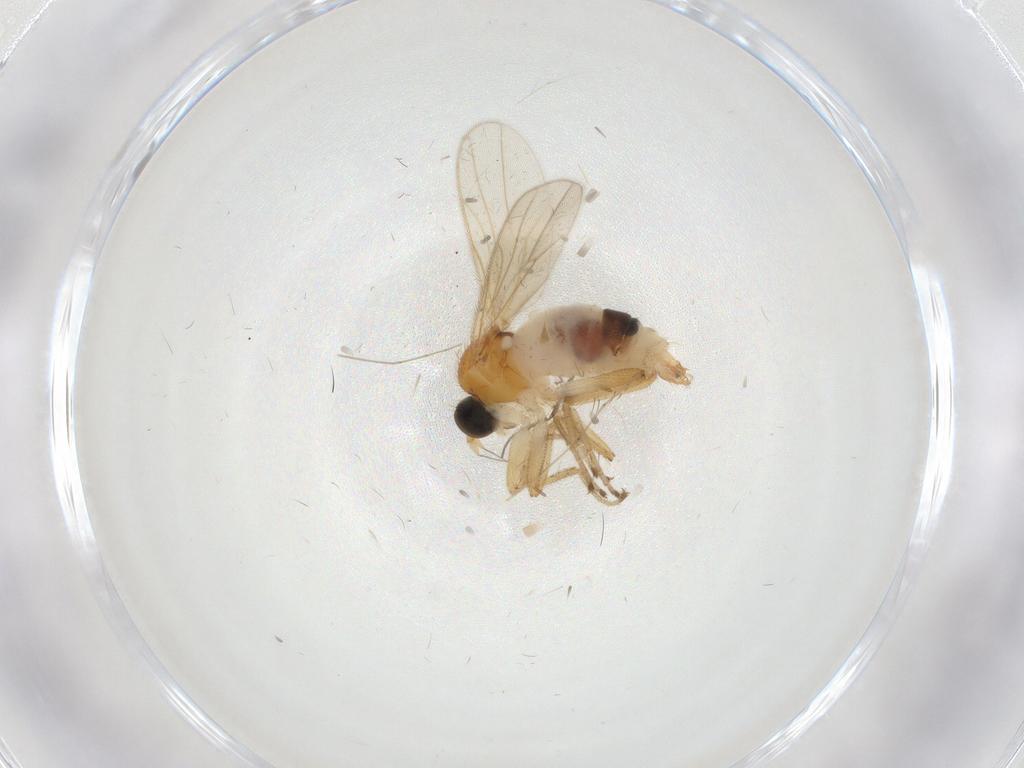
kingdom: Animalia
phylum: Arthropoda
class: Insecta
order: Diptera
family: Hybotidae
